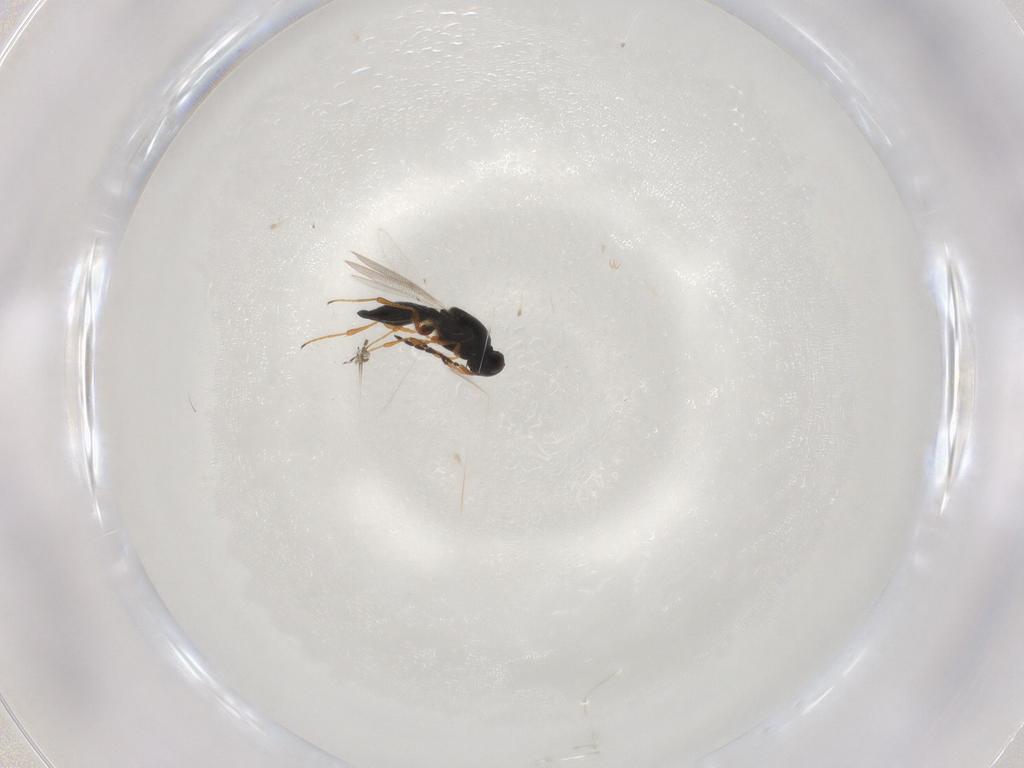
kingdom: Animalia
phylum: Arthropoda
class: Insecta
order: Hymenoptera
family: Platygastridae
